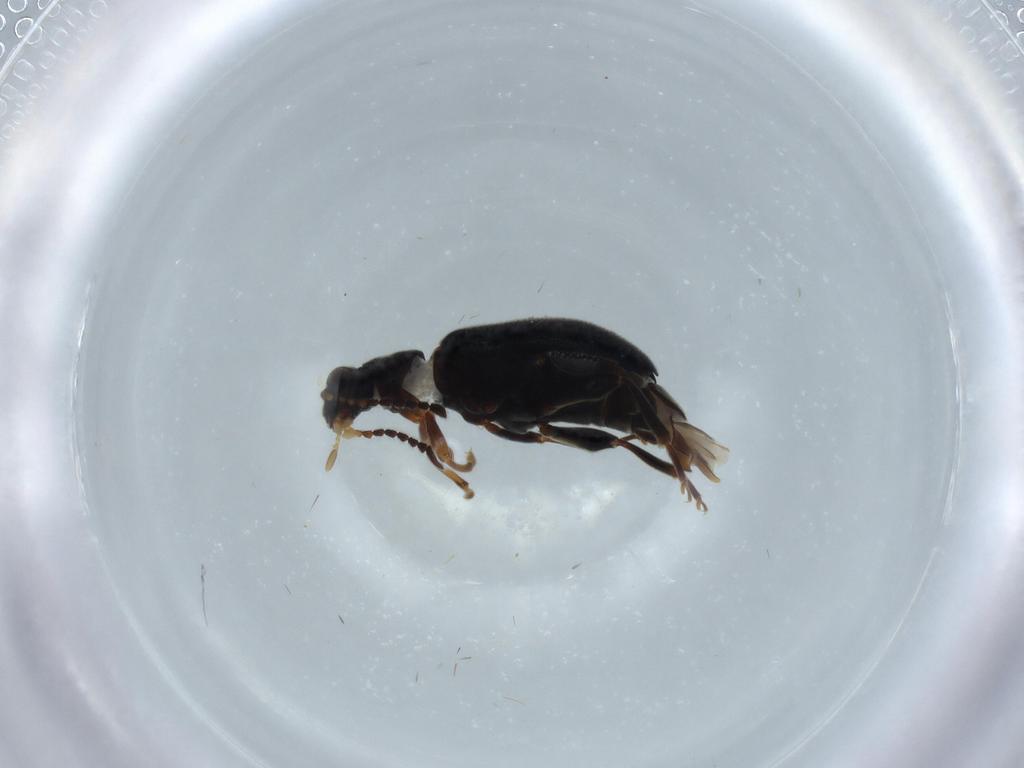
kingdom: Animalia
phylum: Arthropoda
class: Insecta
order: Coleoptera
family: Aderidae
